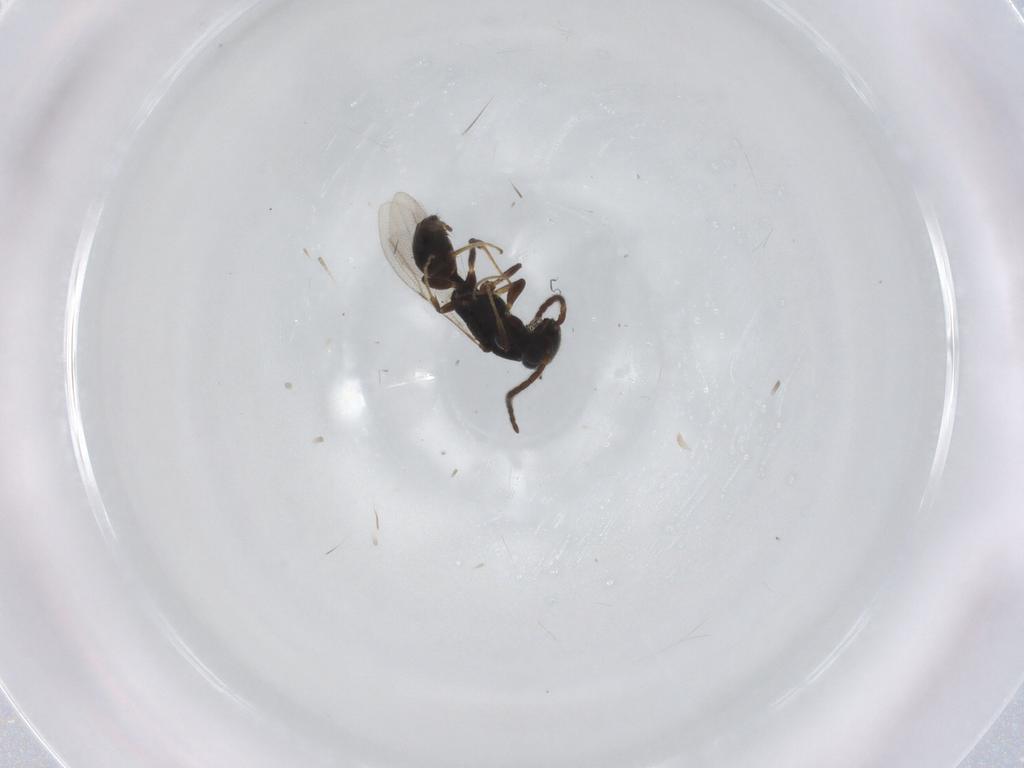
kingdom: Animalia
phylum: Arthropoda
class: Insecta
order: Hymenoptera
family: Bethylidae
